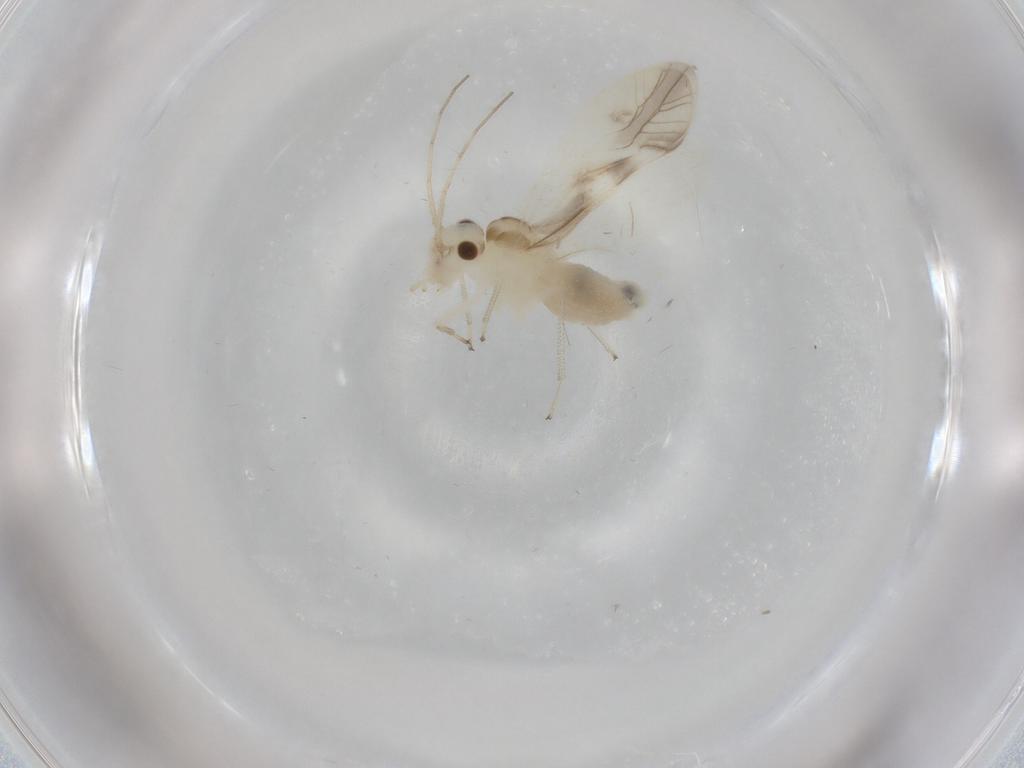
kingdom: Animalia
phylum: Arthropoda
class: Insecta
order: Psocodea
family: Caeciliusidae
